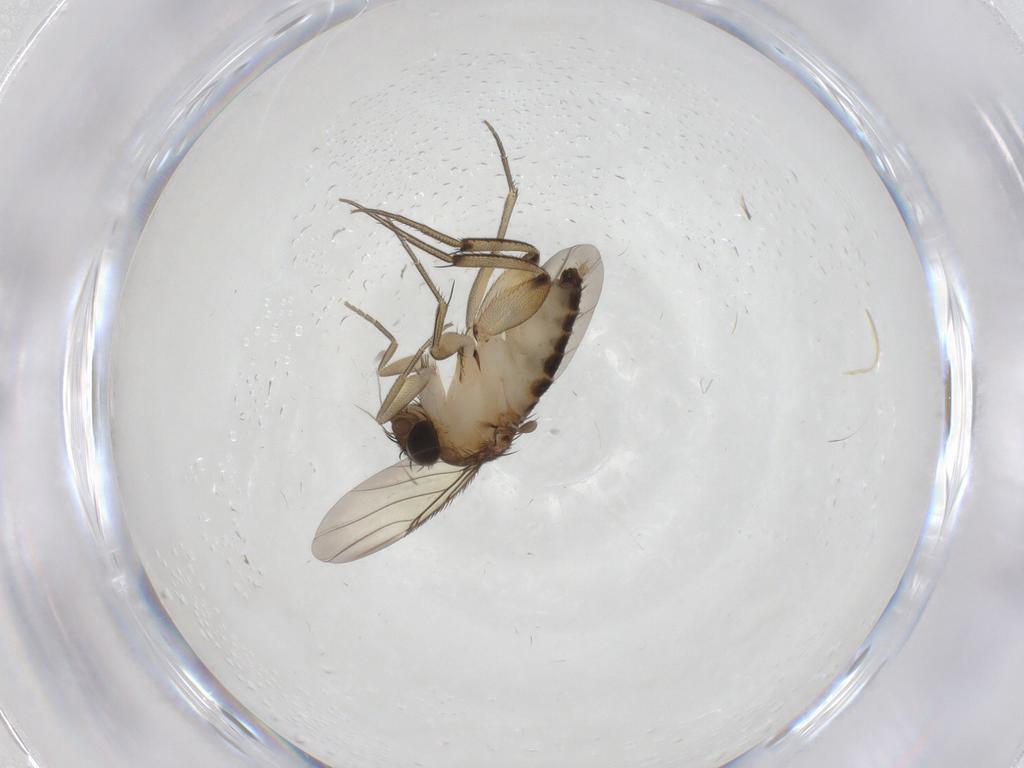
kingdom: Animalia
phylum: Arthropoda
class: Insecta
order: Diptera
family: Phoridae
